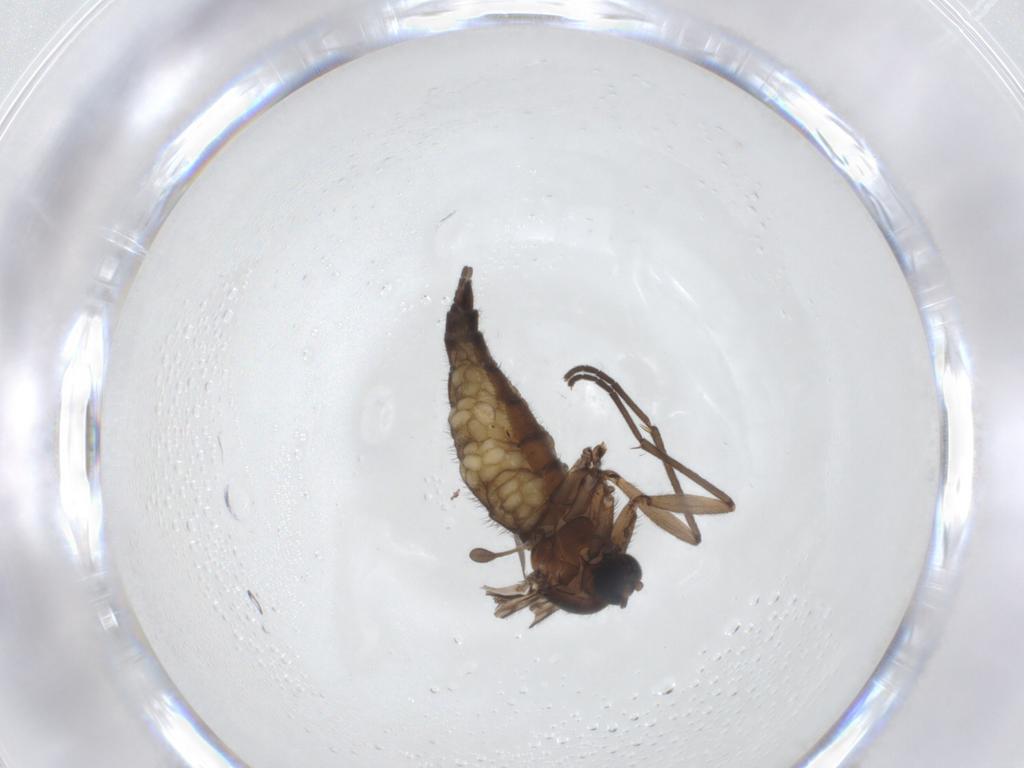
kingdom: Animalia
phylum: Arthropoda
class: Insecta
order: Diptera
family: Sciaridae
